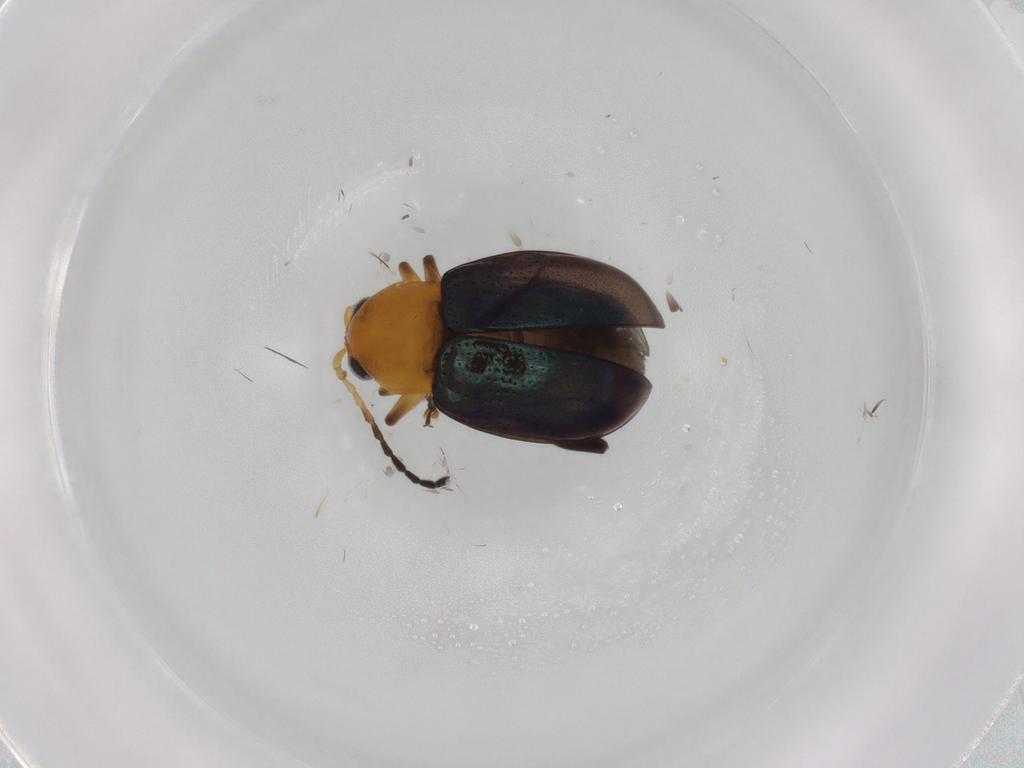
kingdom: Animalia
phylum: Arthropoda
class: Insecta
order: Coleoptera
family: Chrysomelidae
